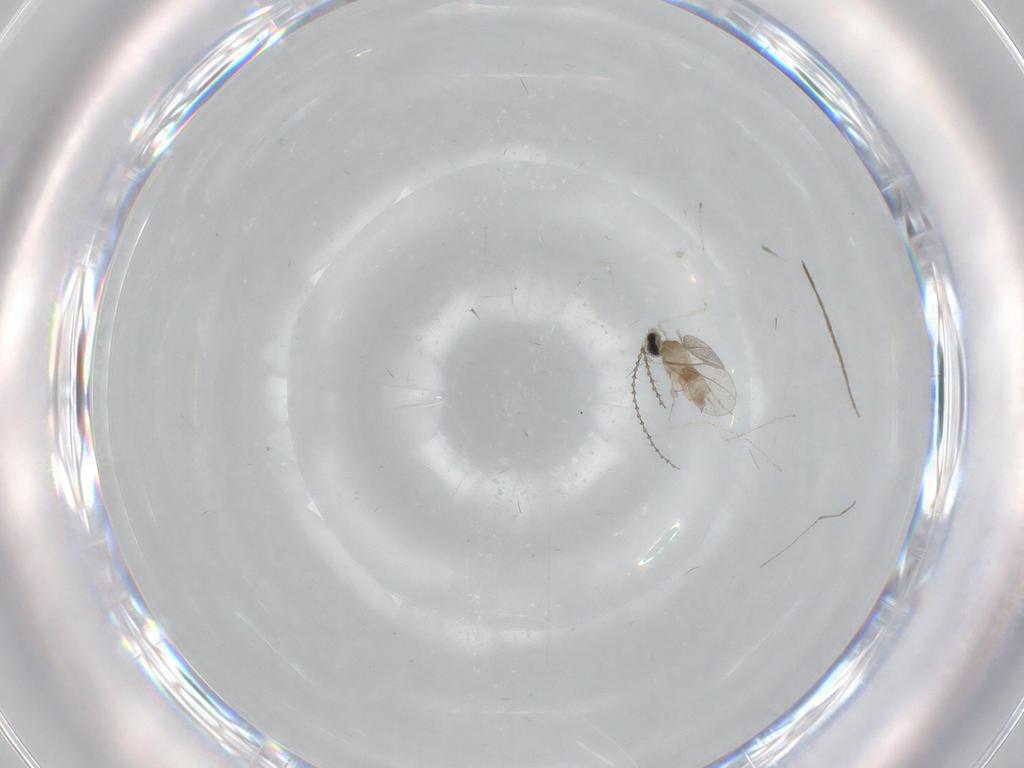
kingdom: Animalia
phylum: Arthropoda
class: Insecta
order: Diptera
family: Chironomidae
